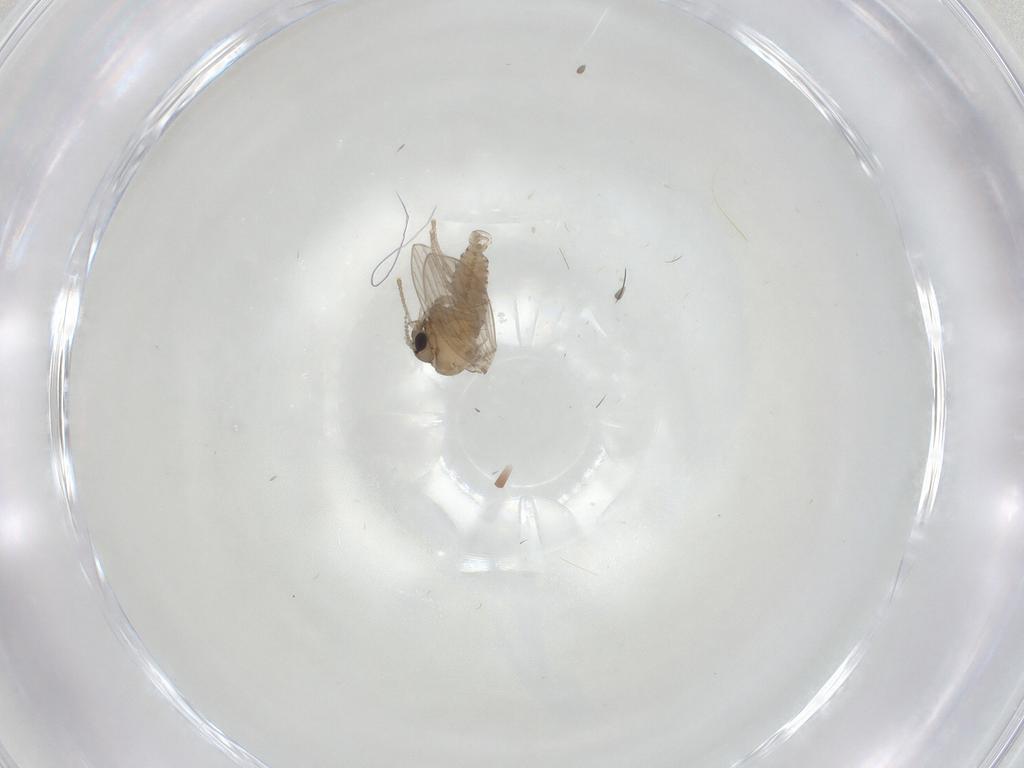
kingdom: Animalia
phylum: Arthropoda
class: Insecta
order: Diptera
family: Psychodidae
